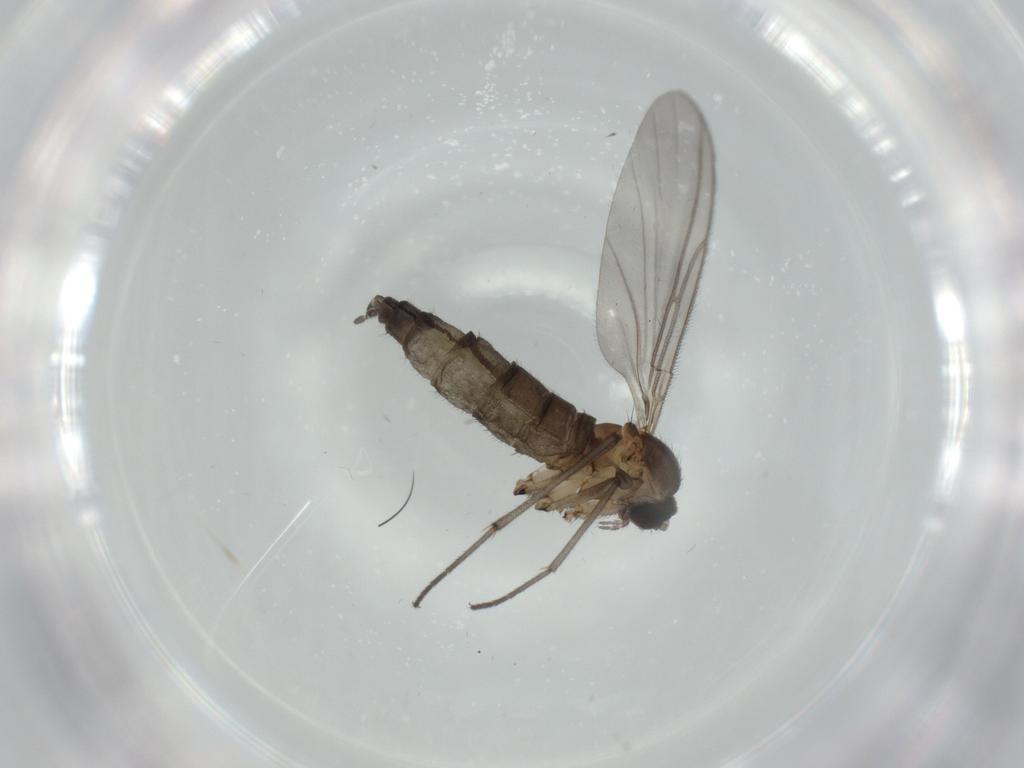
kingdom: Animalia
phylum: Arthropoda
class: Insecta
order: Diptera
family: Sciaridae
